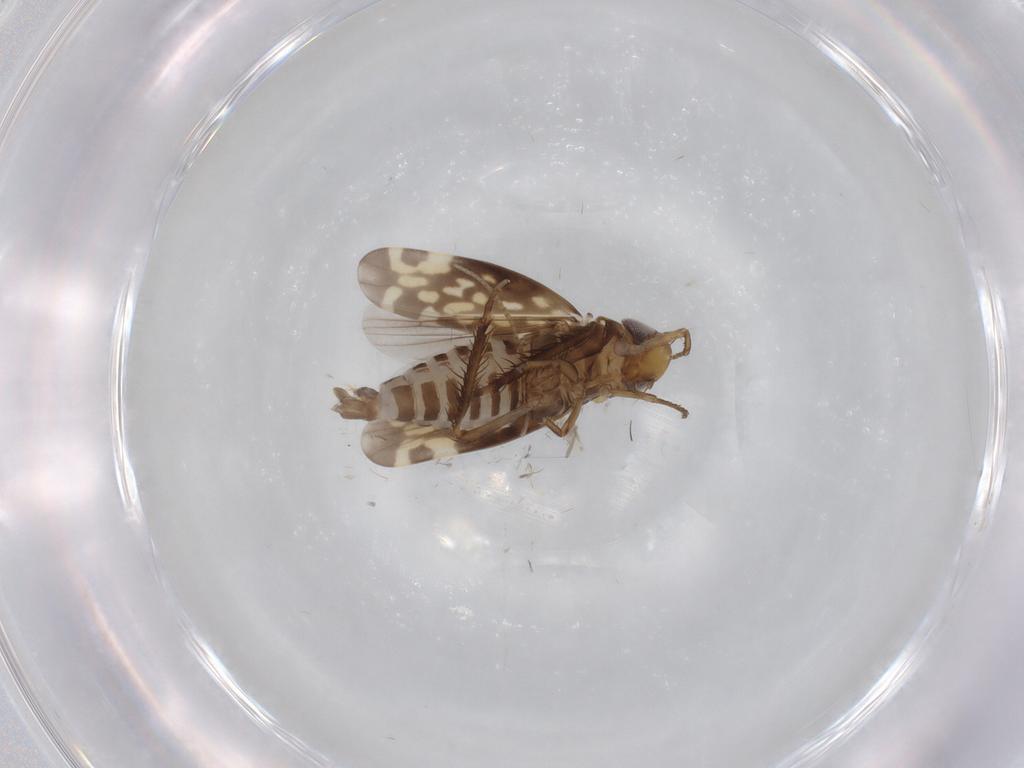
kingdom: Animalia
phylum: Arthropoda
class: Insecta
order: Hemiptera
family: Cicadellidae
